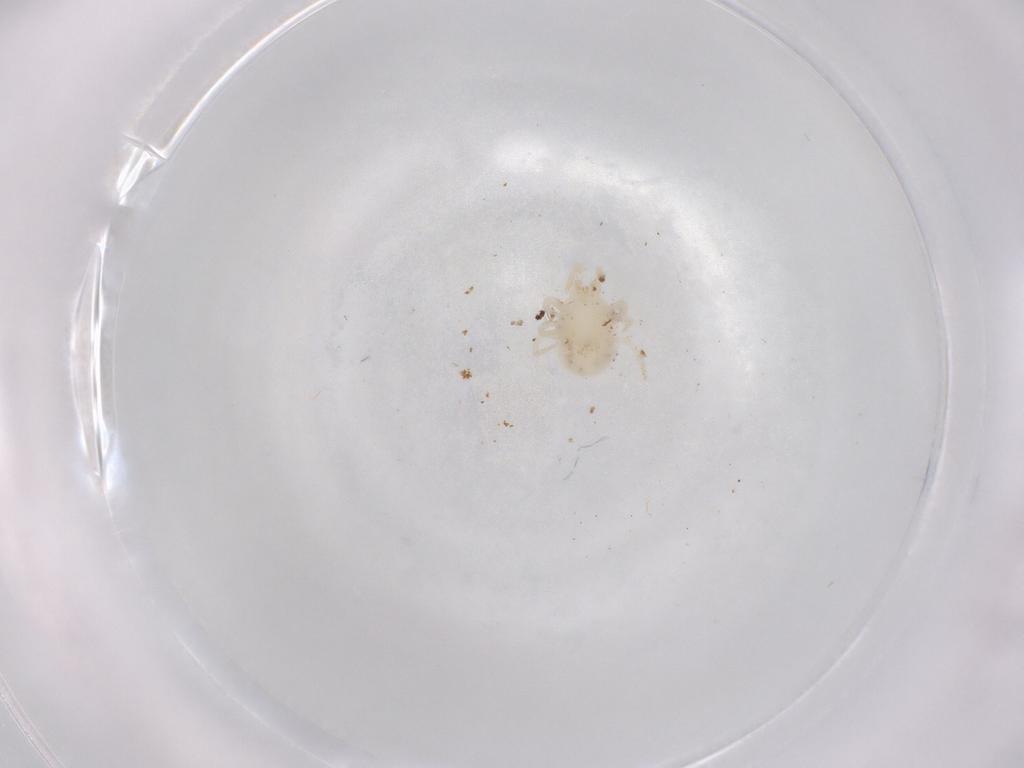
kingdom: Animalia
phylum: Arthropoda
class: Arachnida
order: Mesostigmata
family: Parasitidae
